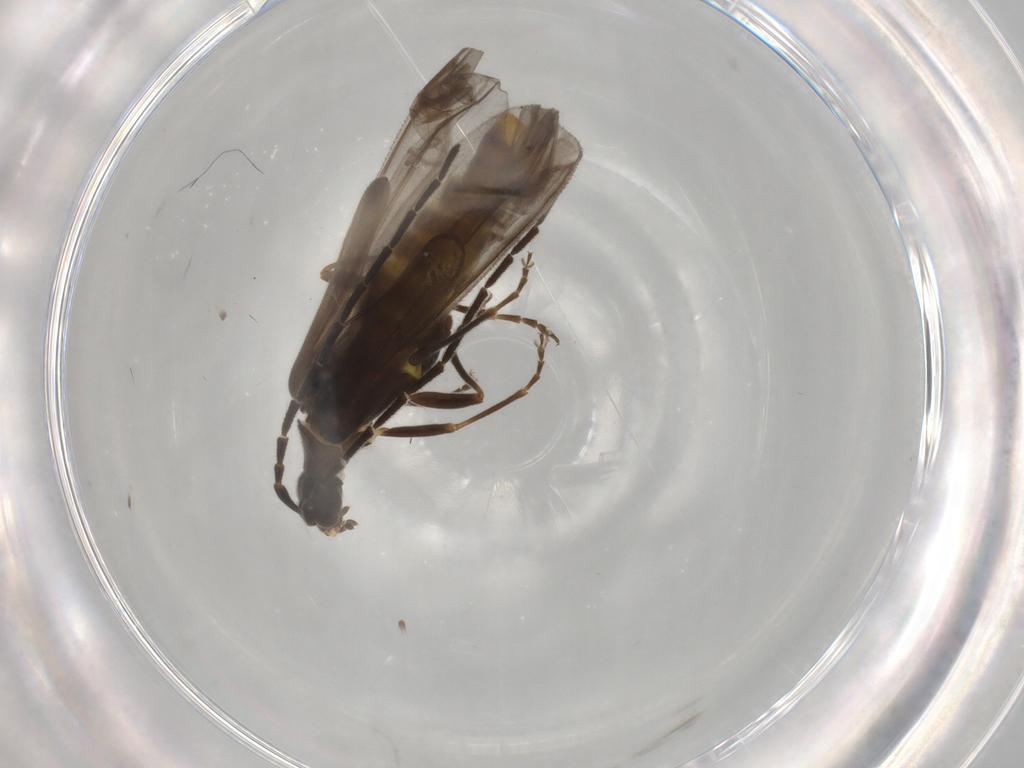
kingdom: Animalia
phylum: Arthropoda
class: Insecta
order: Coleoptera
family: Cantharidae
